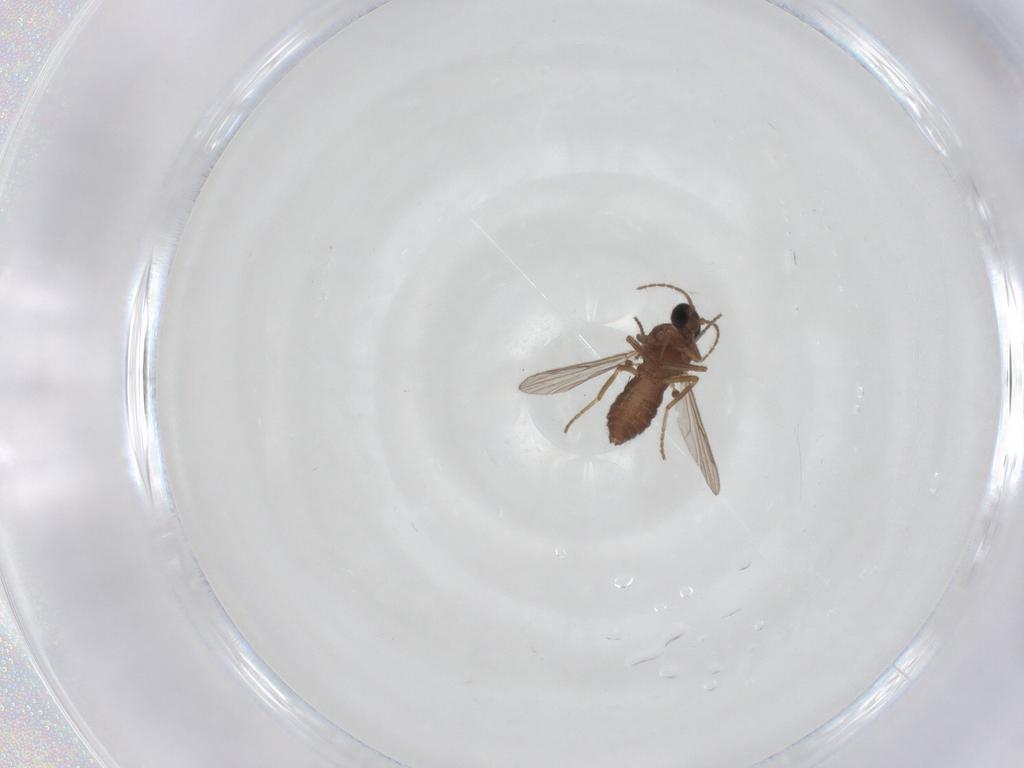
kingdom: Animalia
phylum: Arthropoda
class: Insecta
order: Diptera
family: Ceratopogonidae
